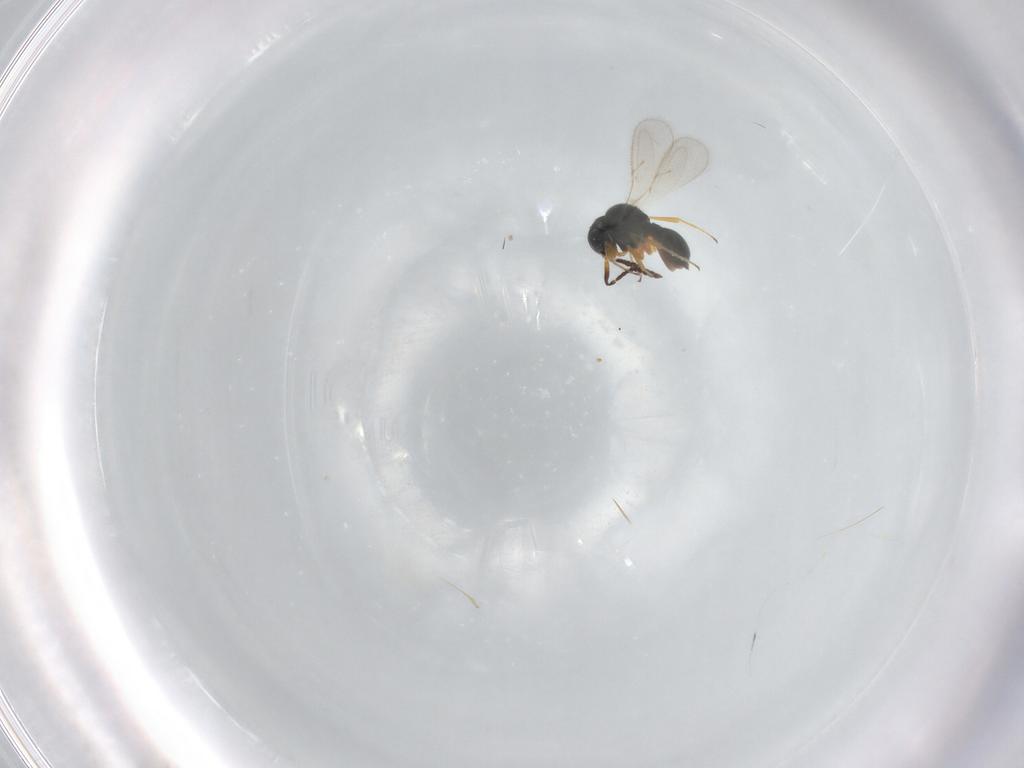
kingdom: Animalia
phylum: Arthropoda
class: Insecta
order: Hymenoptera
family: Scelionidae
